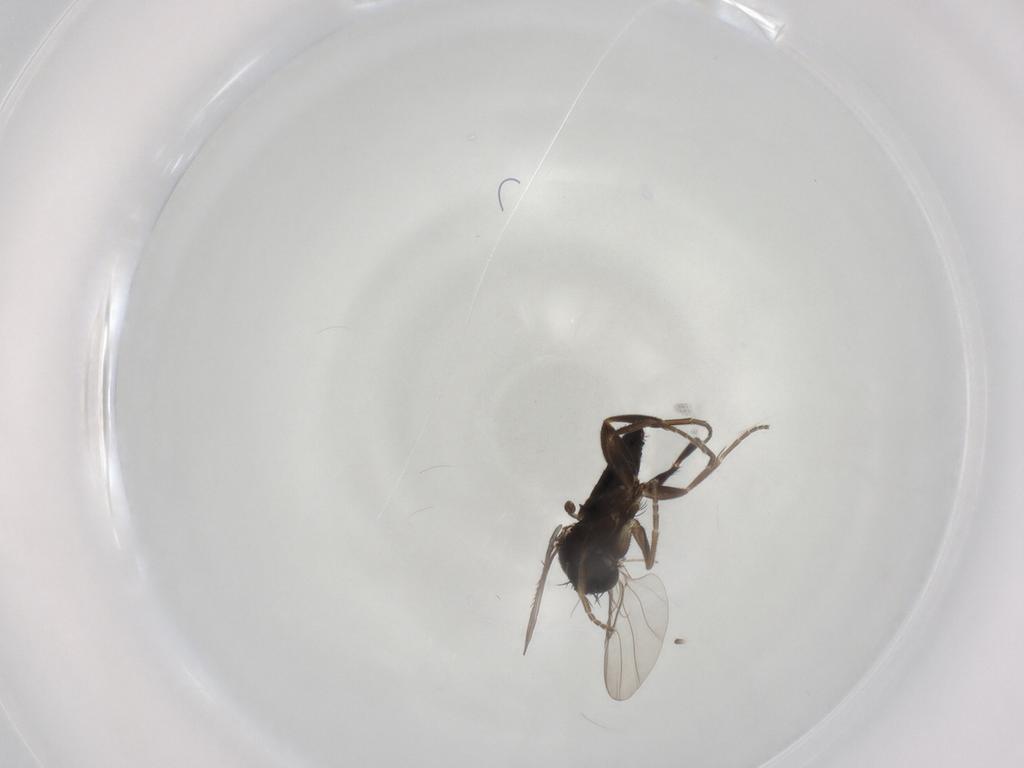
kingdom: Animalia
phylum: Arthropoda
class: Insecta
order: Diptera
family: Phoridae
